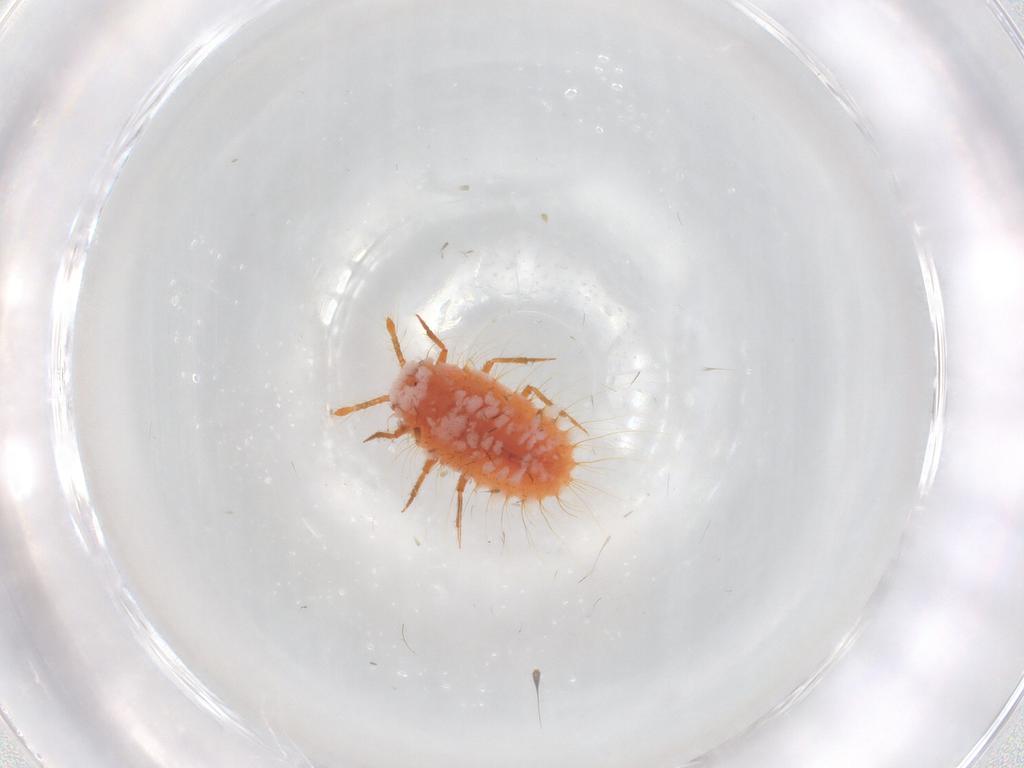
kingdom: Animalia
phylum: Arthropoda
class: Insecta
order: Hemiptera
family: Coccoidea_incertae_sedis
